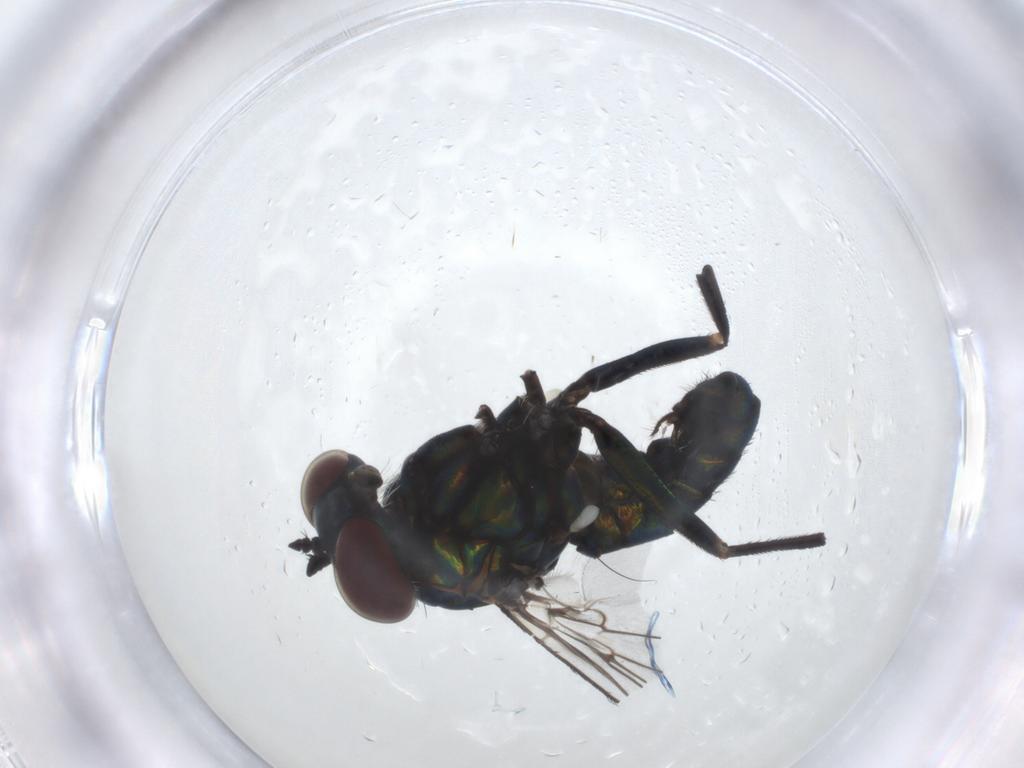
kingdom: Animalia
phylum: Arthropoda
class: Insecta
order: Diptera
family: Dolichopodidae
